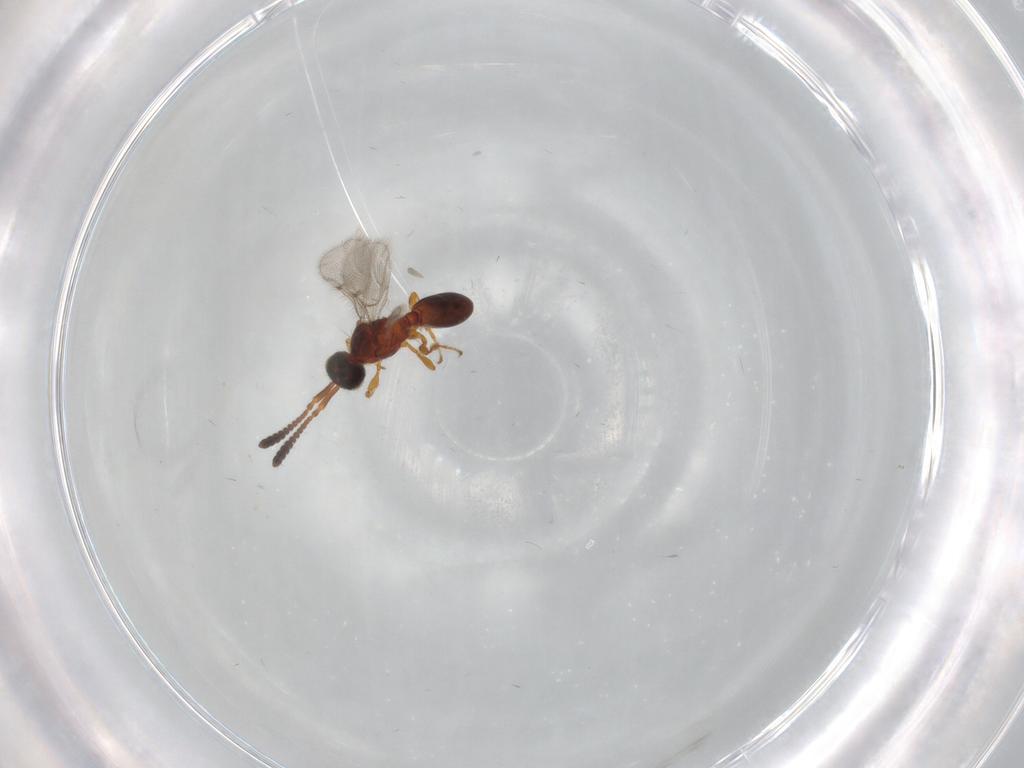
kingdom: Animalia
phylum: Arthropoda
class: Insecta
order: Hymenoptera
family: Diapriidae
